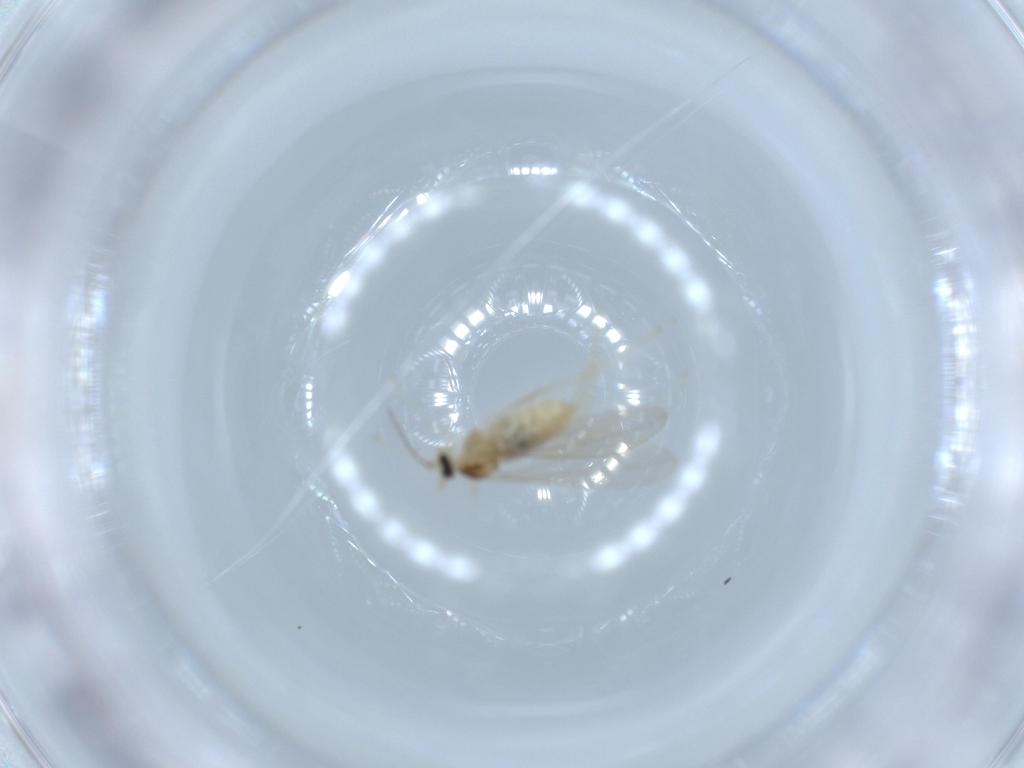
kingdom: Animalia
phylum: Arthropoda
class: Insecta
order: Diptera
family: Cecidomyiidae
